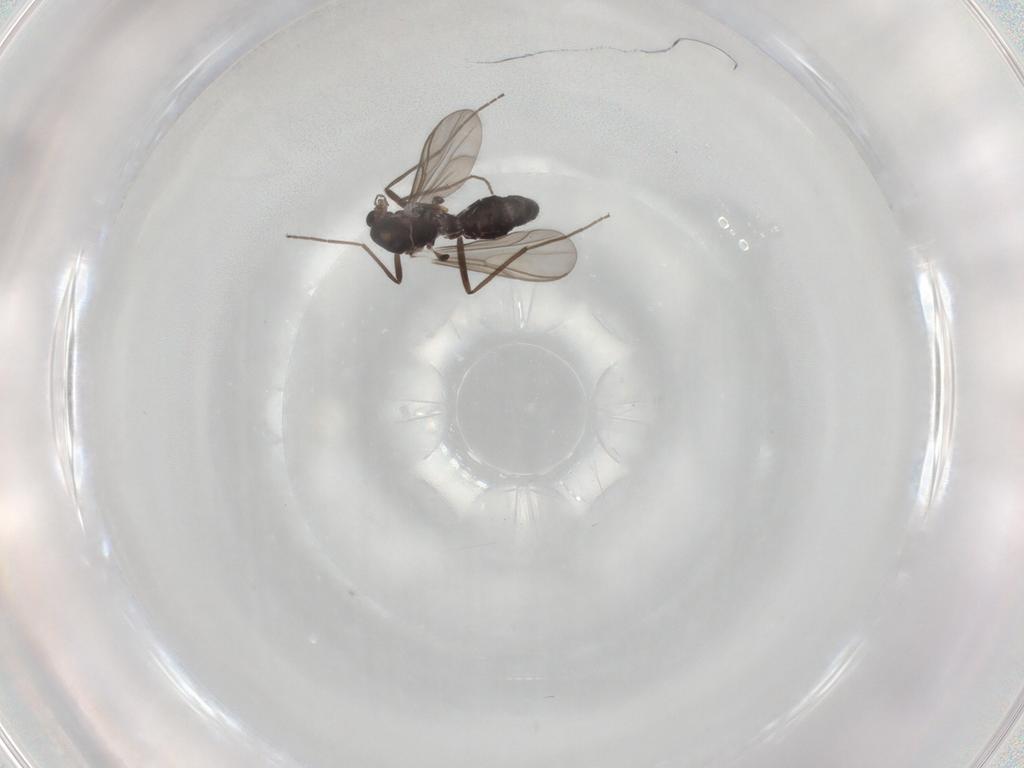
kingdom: Animalia
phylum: Arthropoda
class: Insecta
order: Diptera
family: Chironomidae
